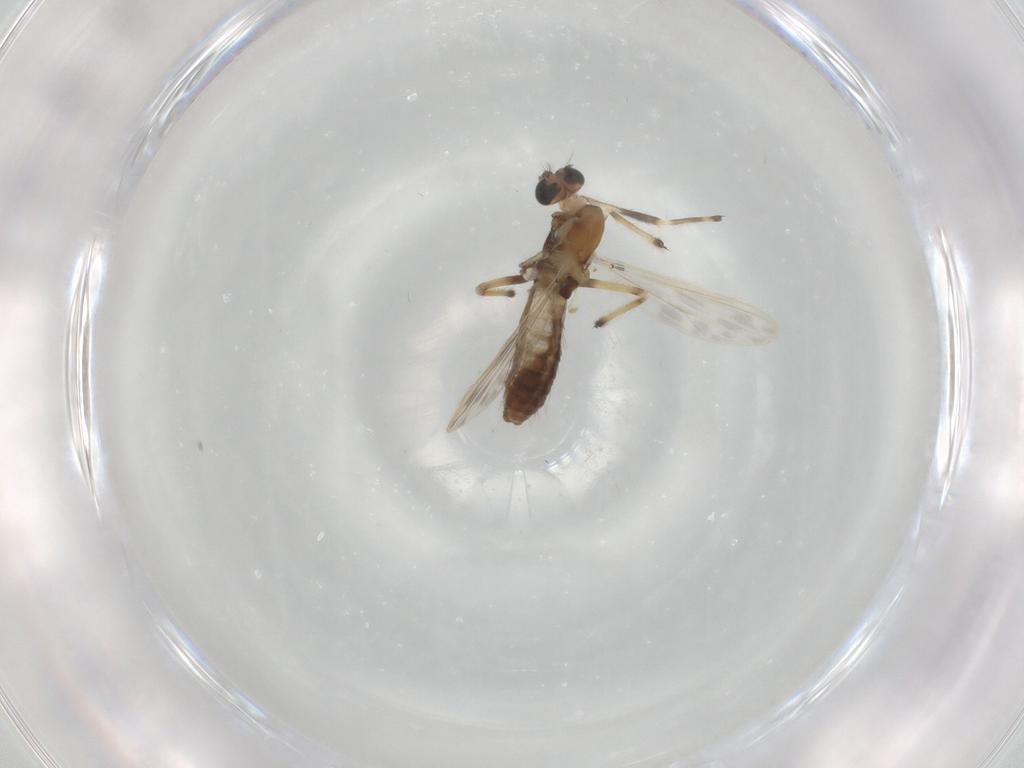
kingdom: Animalia
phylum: Arthropoda
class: Insecta
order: Diptera
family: Chironomidae
